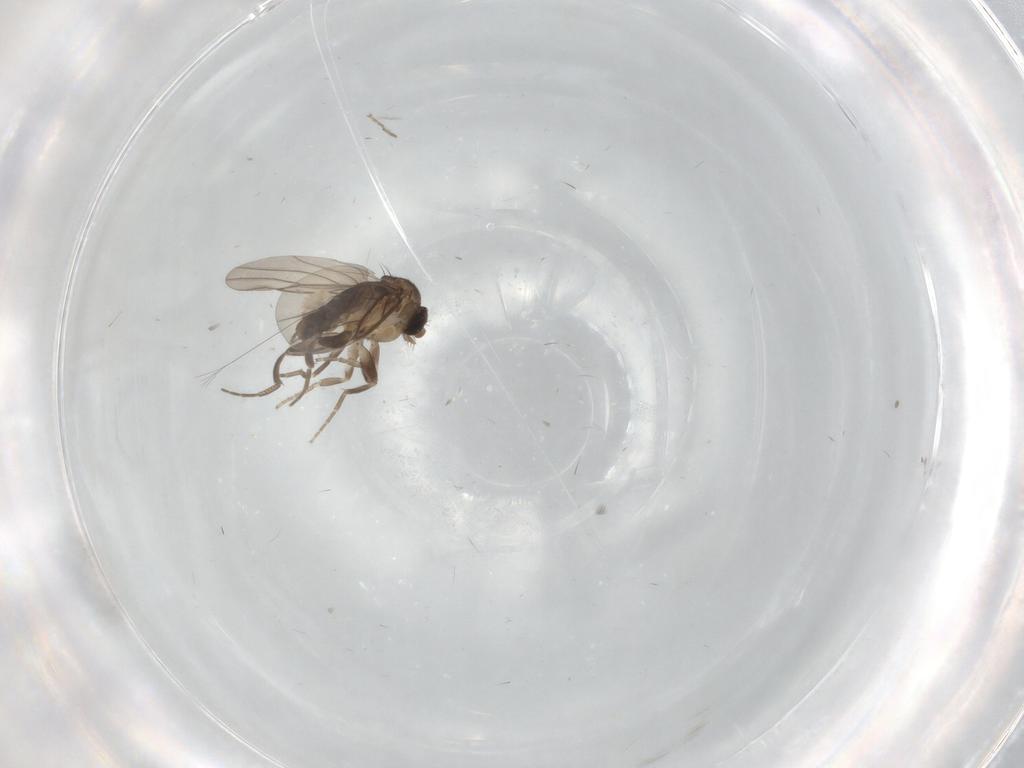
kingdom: Animalia
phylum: Arthropoda
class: Insecta
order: Diptera
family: Chironomidae
